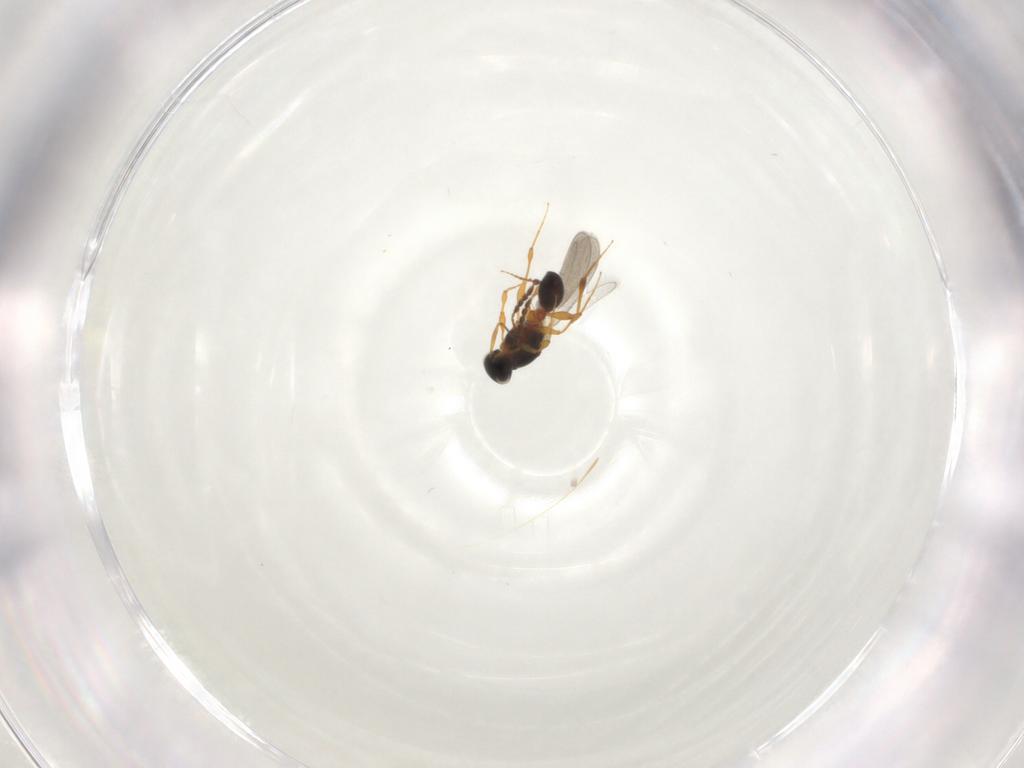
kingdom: Animalia
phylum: Arthropoda
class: Insecta
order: Hymenoptera
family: Platygastridae
